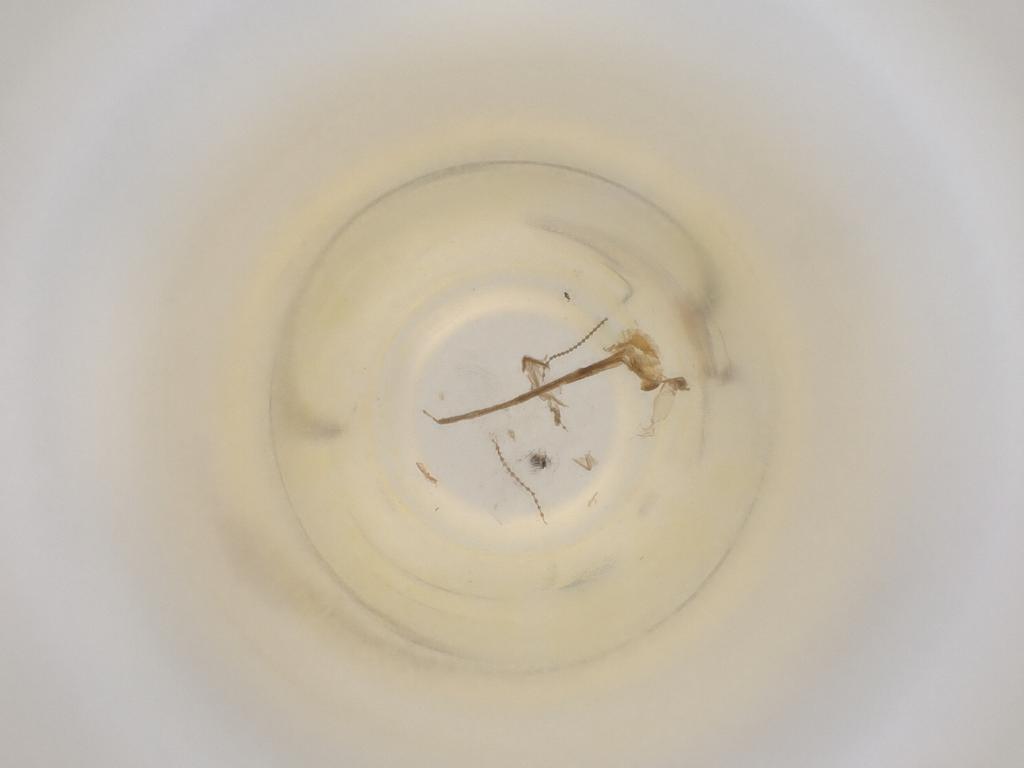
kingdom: Animalia
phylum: Arthropoda
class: Insecta
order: Diptera
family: Cecidomyiidae
